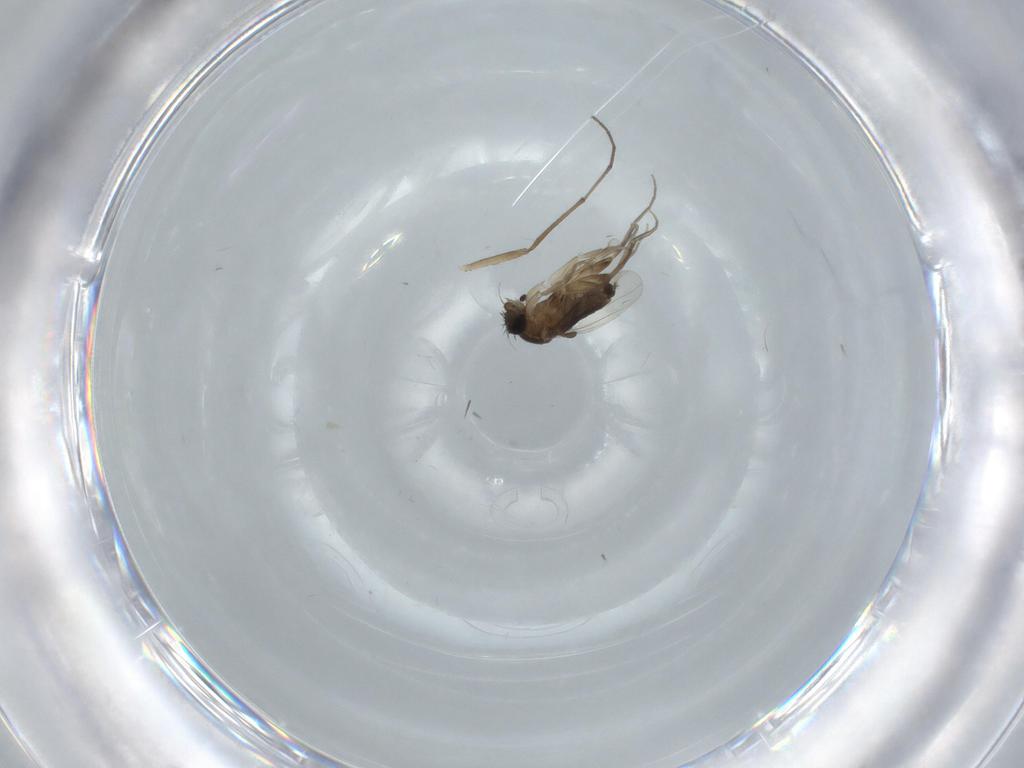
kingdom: Animalia
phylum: Arthropoda
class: Insecta
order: Diptera
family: Phoridae
